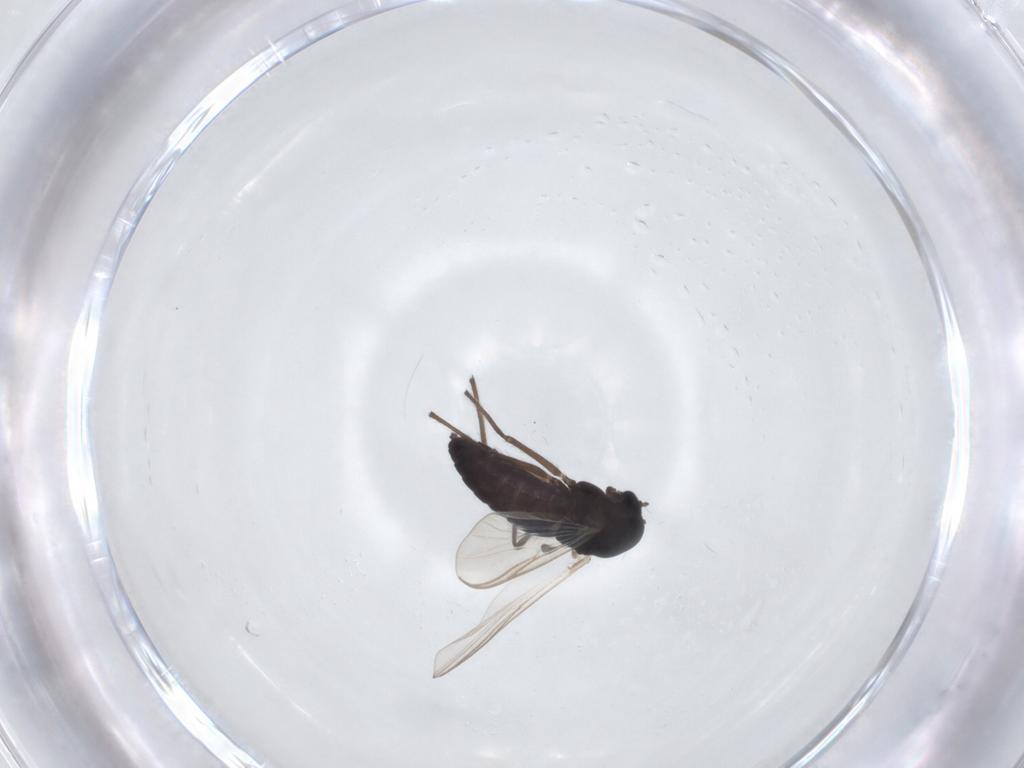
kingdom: Animalia
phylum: Arthropoda
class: Insecta
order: Diptera
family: Chironomidae
